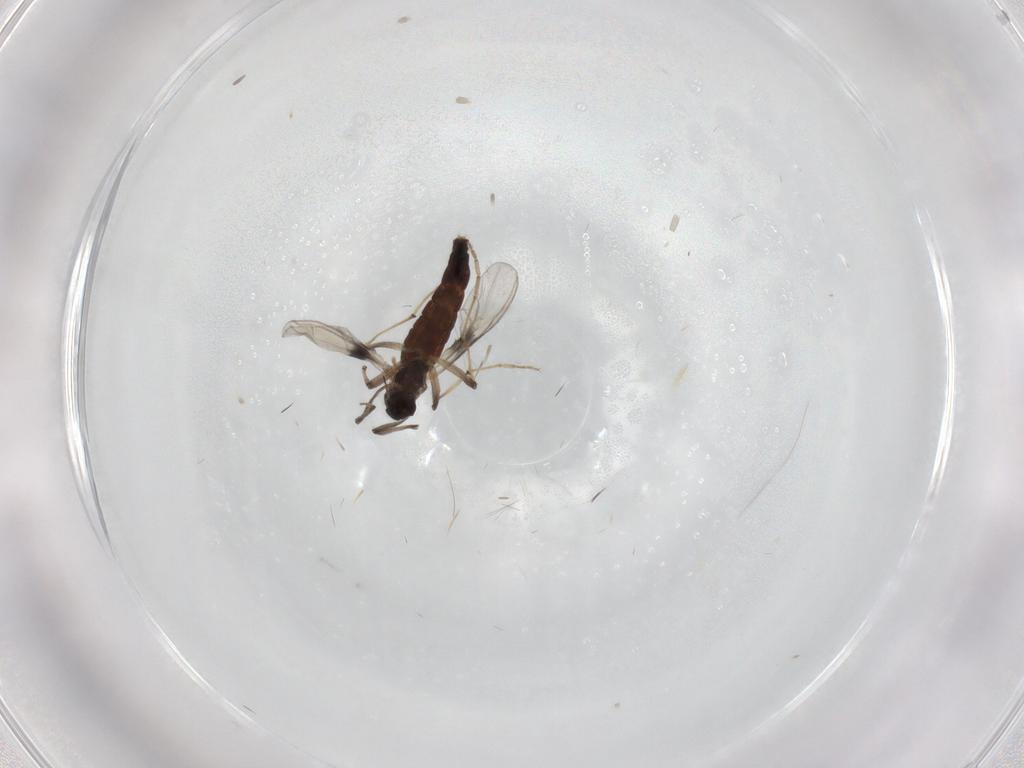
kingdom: Animalia
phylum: Arthropoda
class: Insecta
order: Diptera
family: Chironomidae
